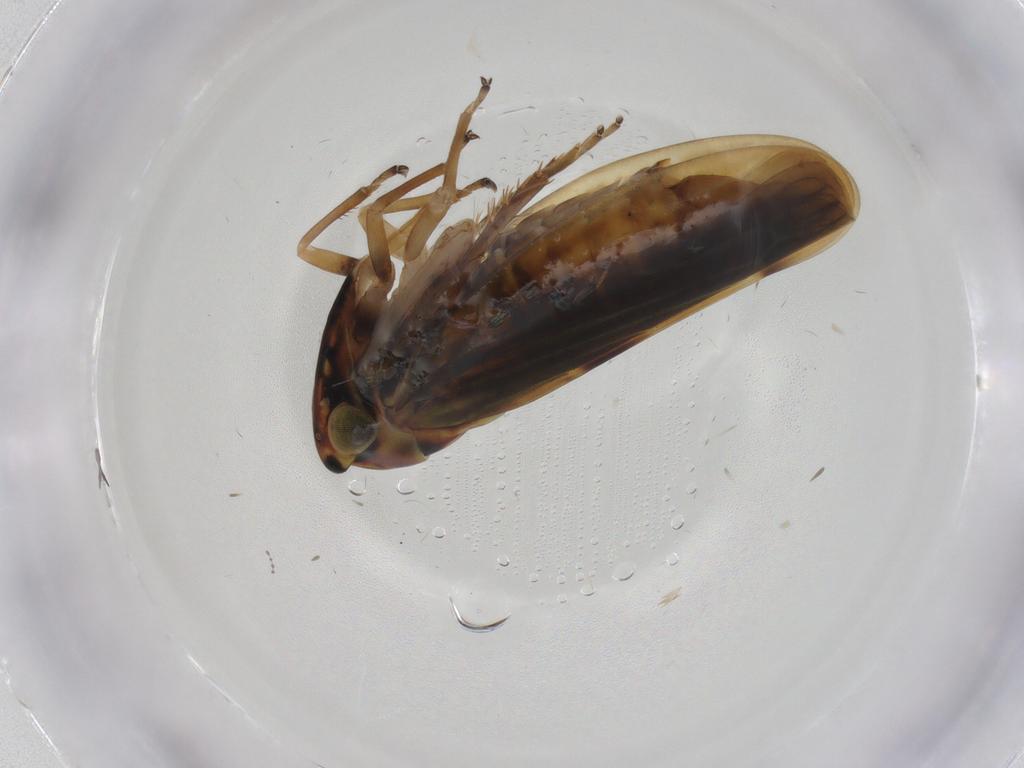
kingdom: Animalia
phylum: Arthropoda
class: Insecta
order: Hemiptera
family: Cicadellidae
